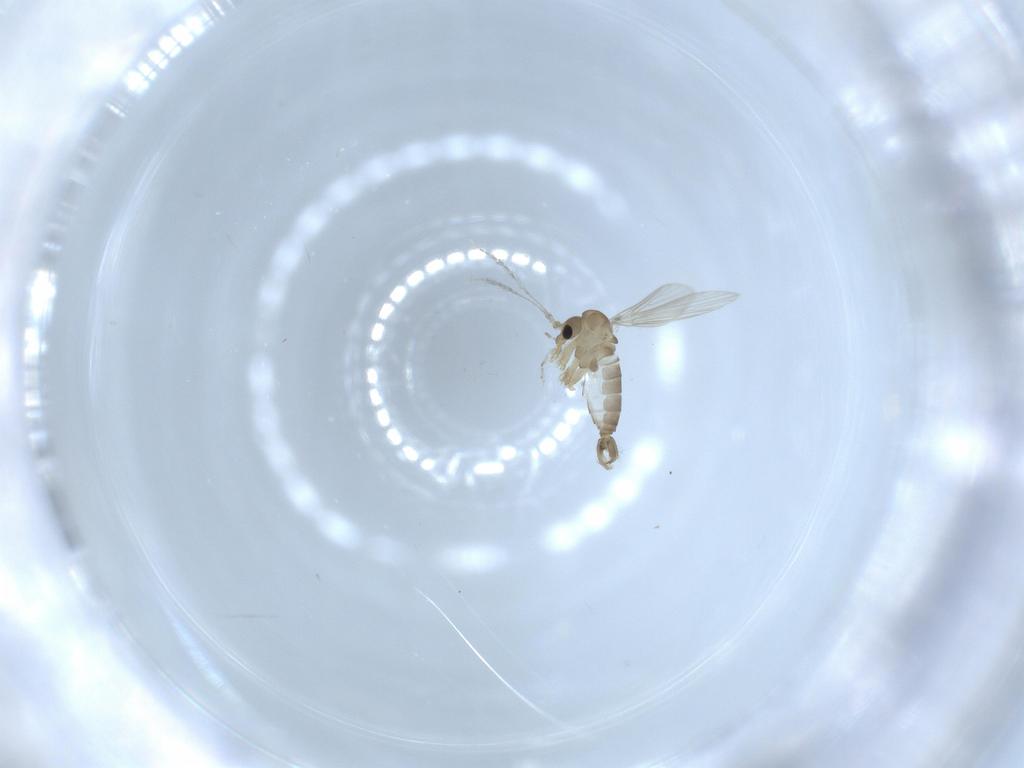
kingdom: Animalia
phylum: Arthropoda
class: Insecta
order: Diptera
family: Psychodidae
